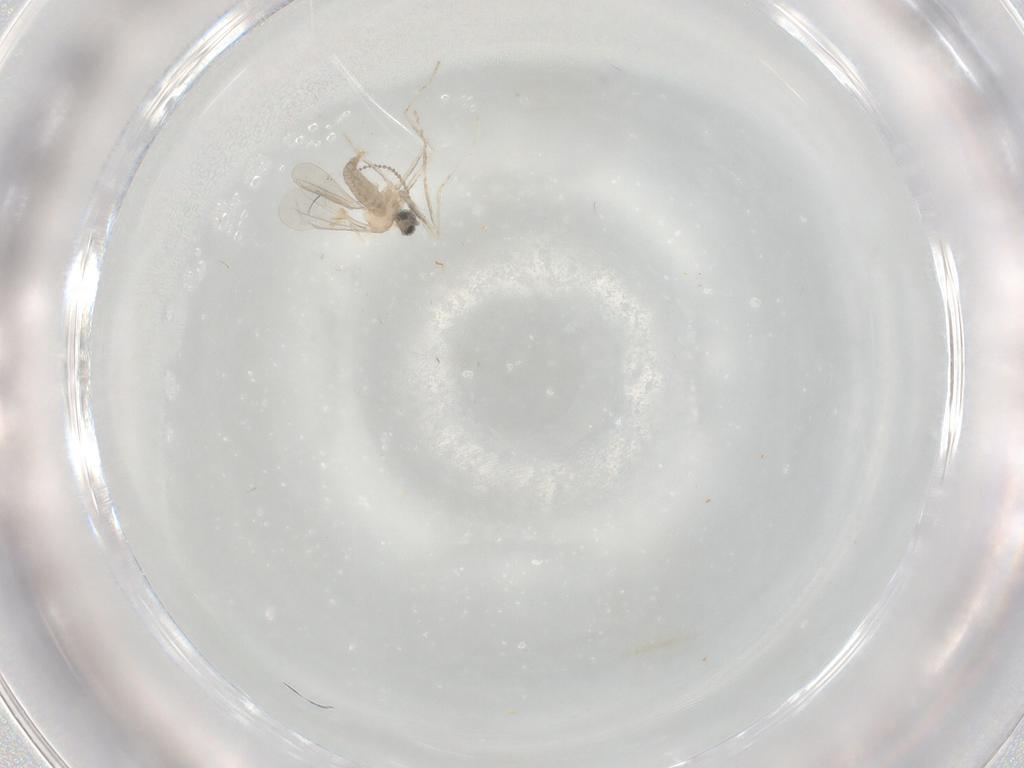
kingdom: Animalia
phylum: Arthropoda
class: Insecta
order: Diptera
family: Cecidomyiidae
